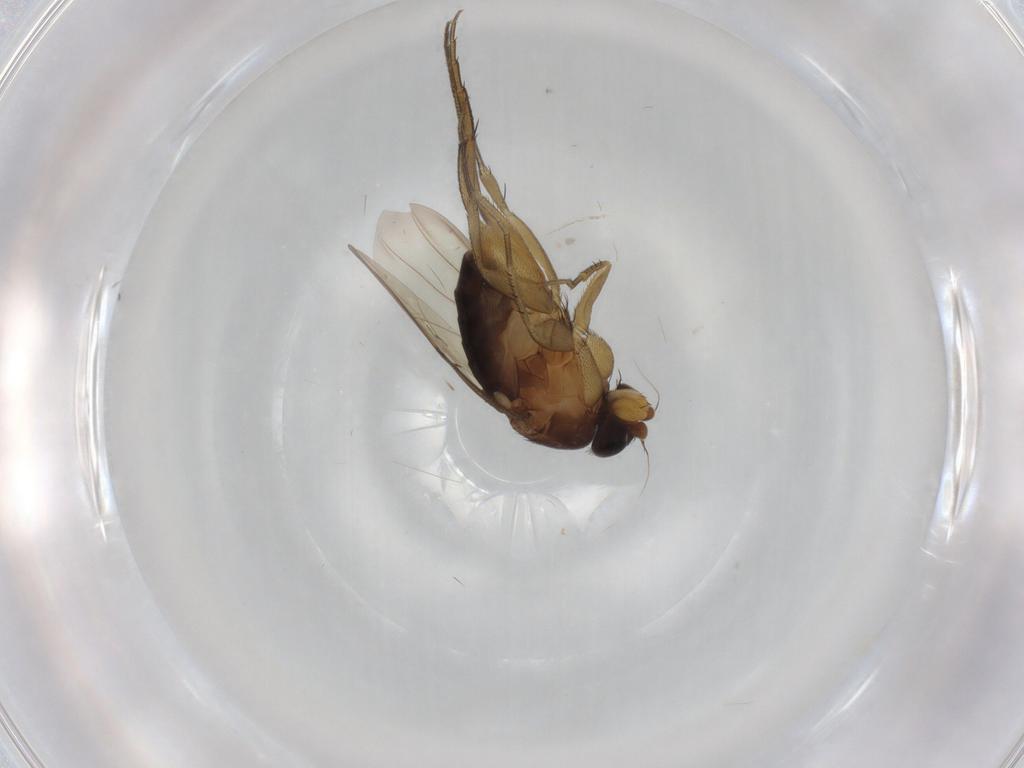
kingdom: Animalia
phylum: Arthropoda
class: Insecta
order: Diptera
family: Phoridae
